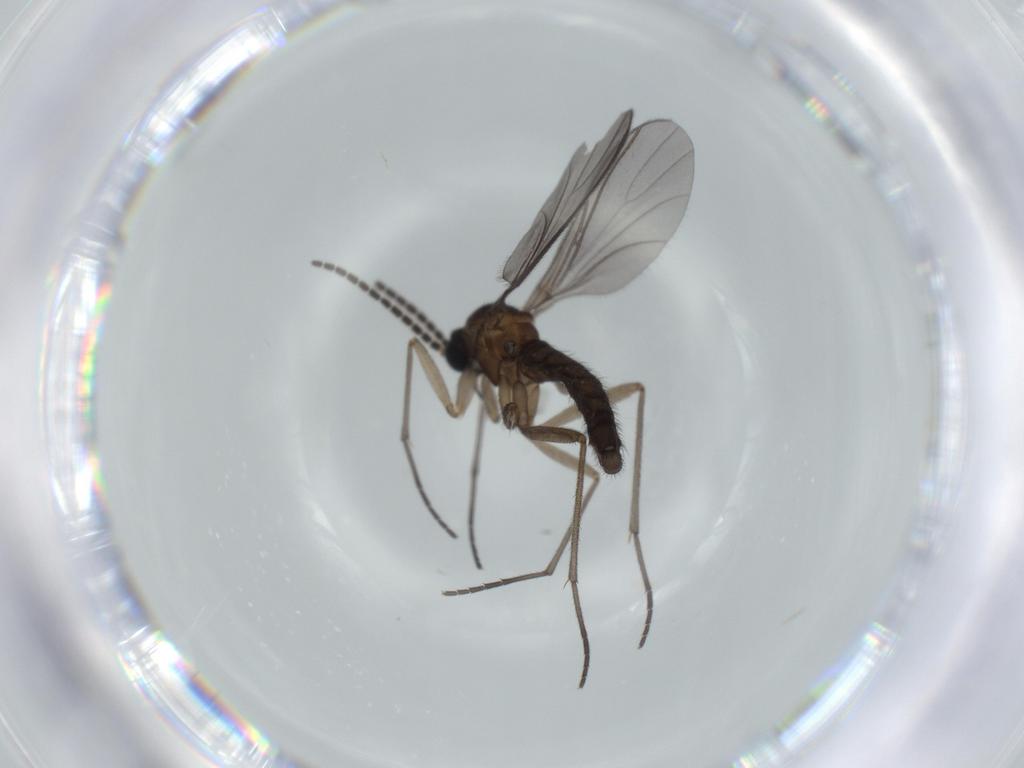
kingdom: Animalia
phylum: Arthropoda
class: Insecta
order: Diptera
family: Sciaridae
